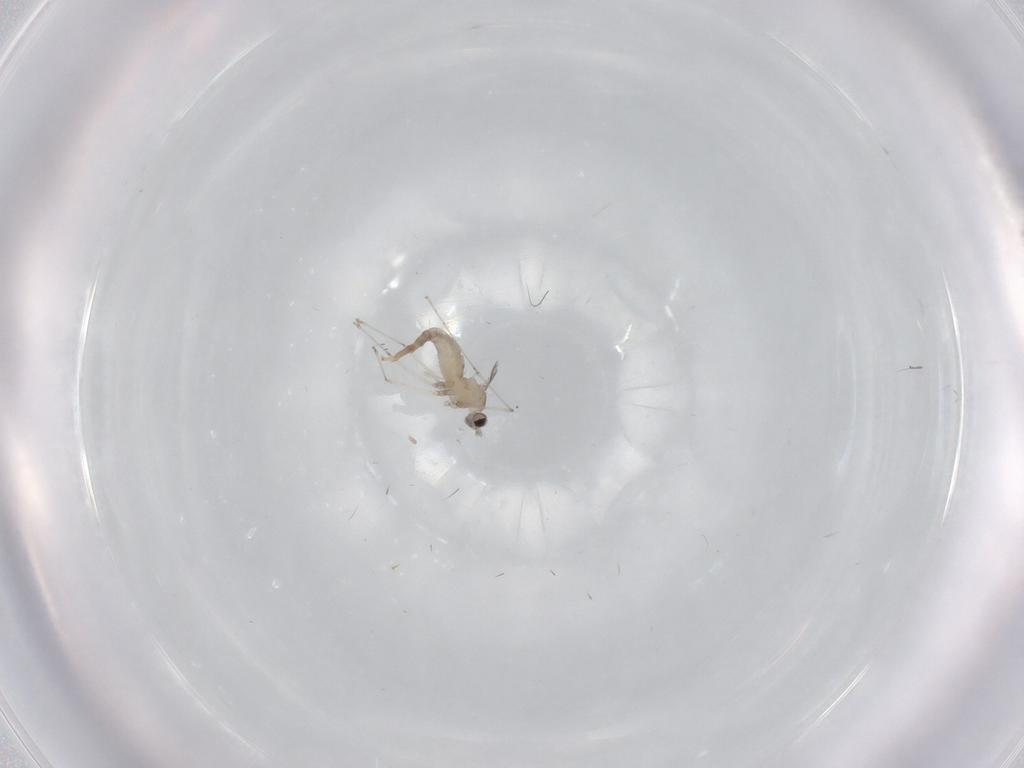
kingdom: Animalia
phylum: Arthropoda
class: Insecta
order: Diptera
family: Cecidomyiidae
